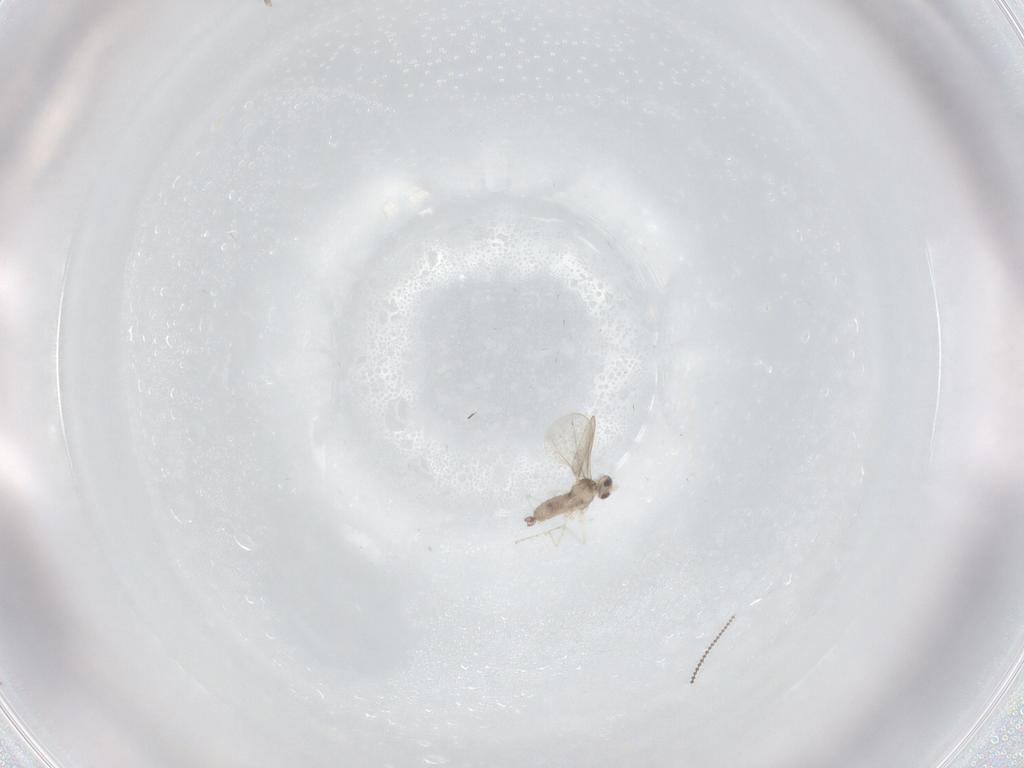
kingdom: Animalia
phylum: Arthropoda
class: Insecta
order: Diptera
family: Cecidomyiidae
